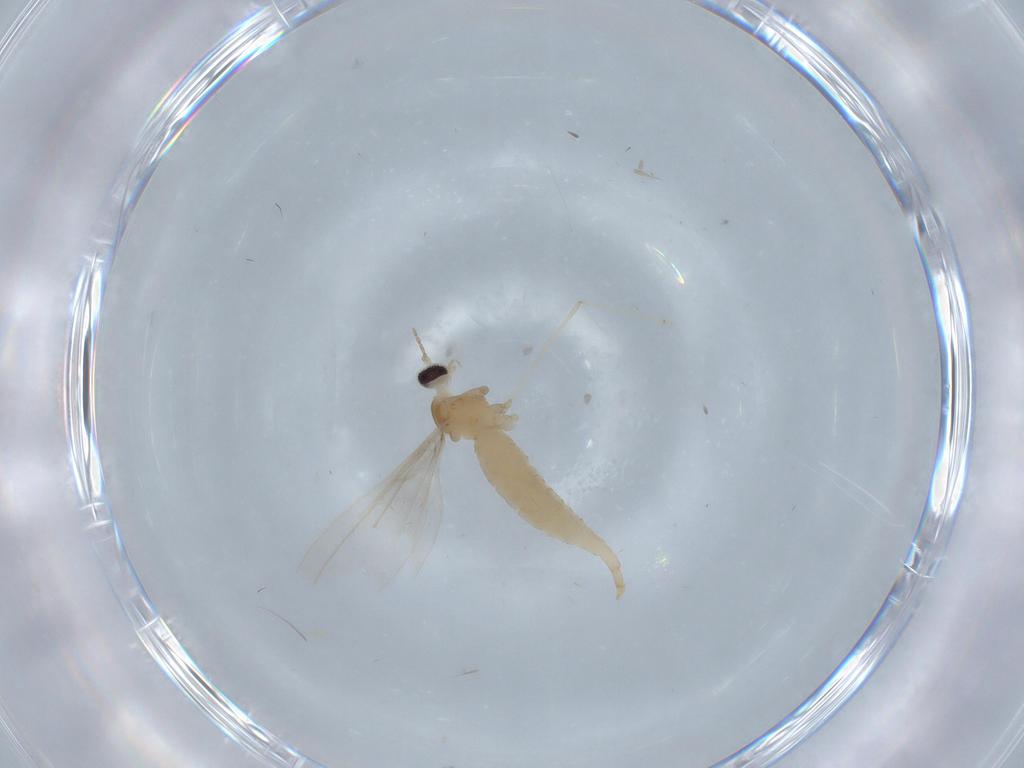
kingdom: Animalia
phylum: Arthropoda
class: Insecta
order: Diptera
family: Cecidomyiidae
